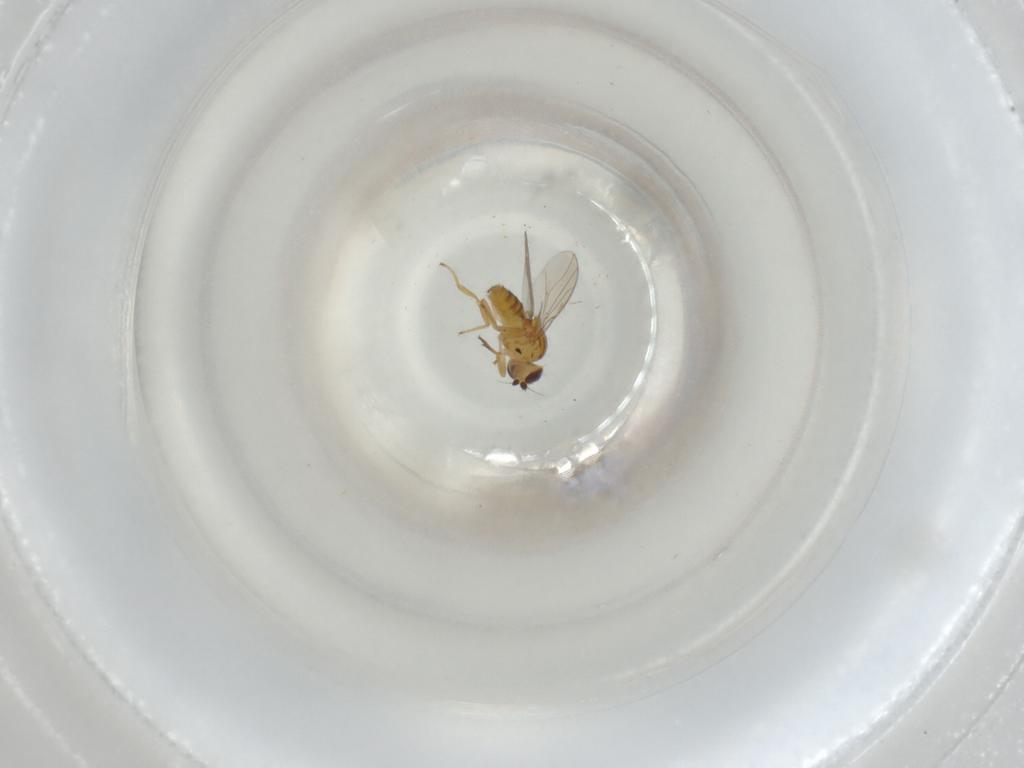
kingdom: Animalia
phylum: Arthropoda
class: Insecta
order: Diptera
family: Chloropidae
